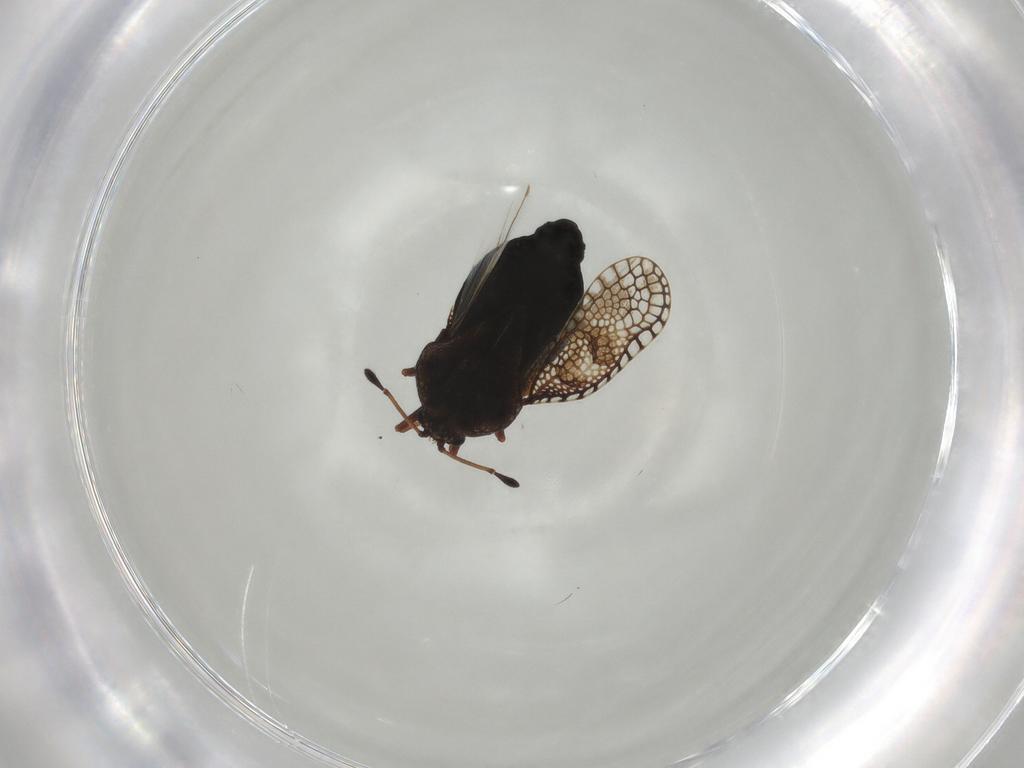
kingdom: Animalia
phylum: Arthropoda
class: Insecta
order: Hemiptera
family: Tingidae
